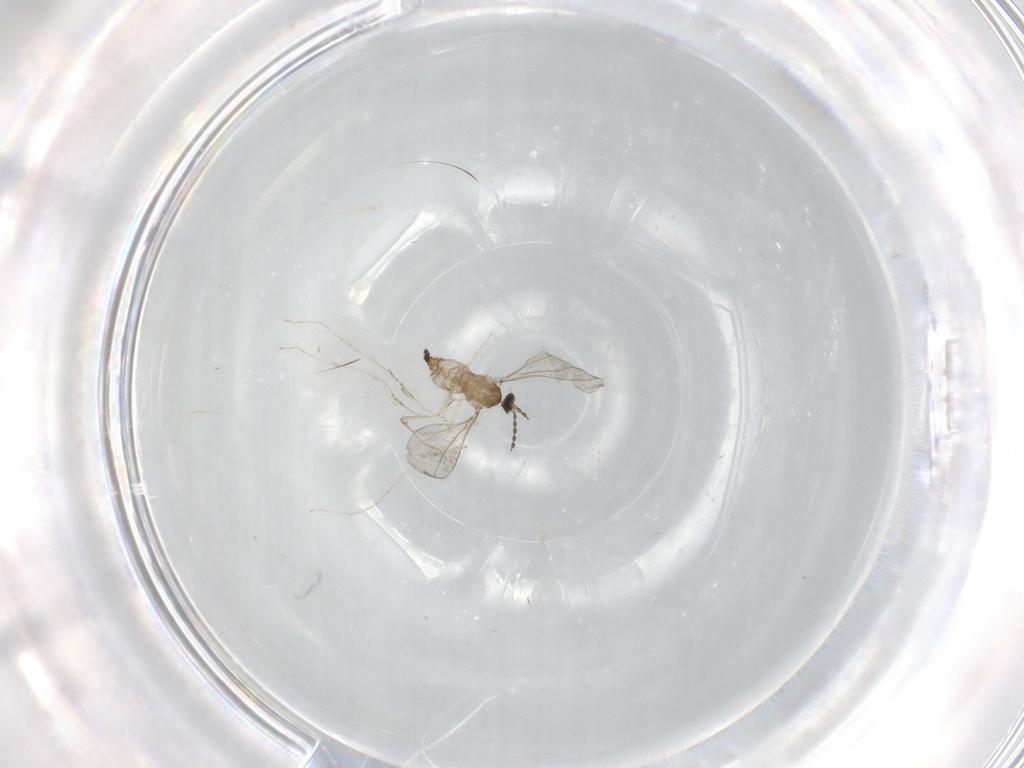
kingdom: Animalia
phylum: Arthropoda
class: Insecta
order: Diptera
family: Cecidomyiidae
